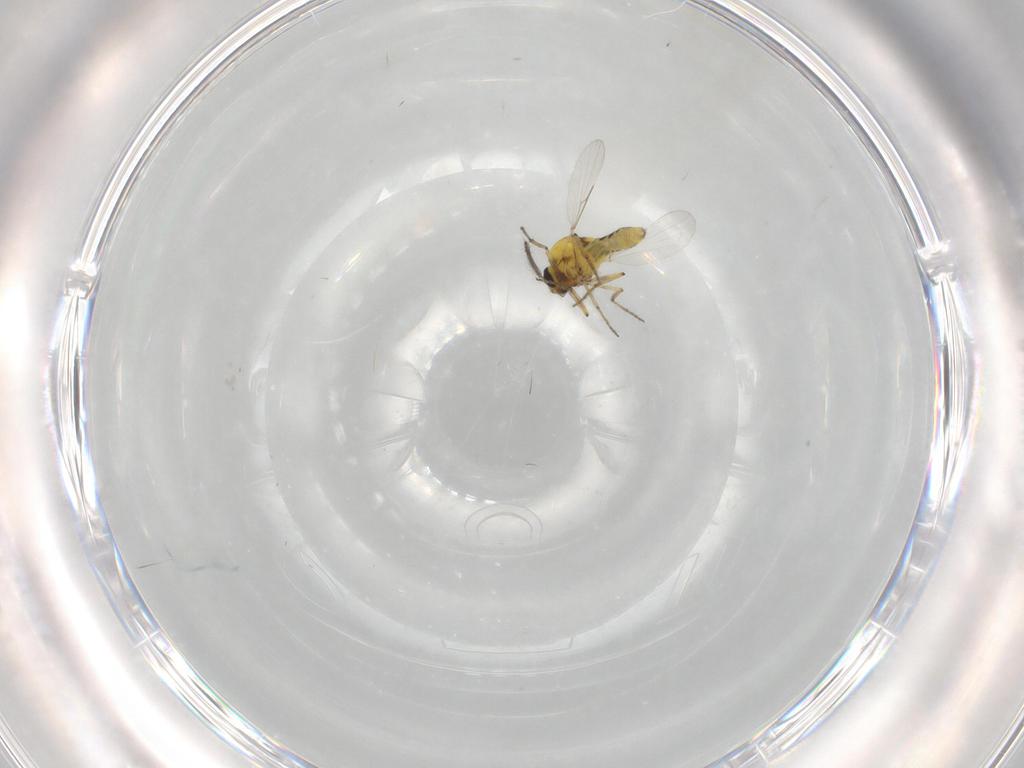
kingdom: Animalia
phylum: Arthropoda
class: Insecta
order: Diptera
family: Ceratopogonidae
